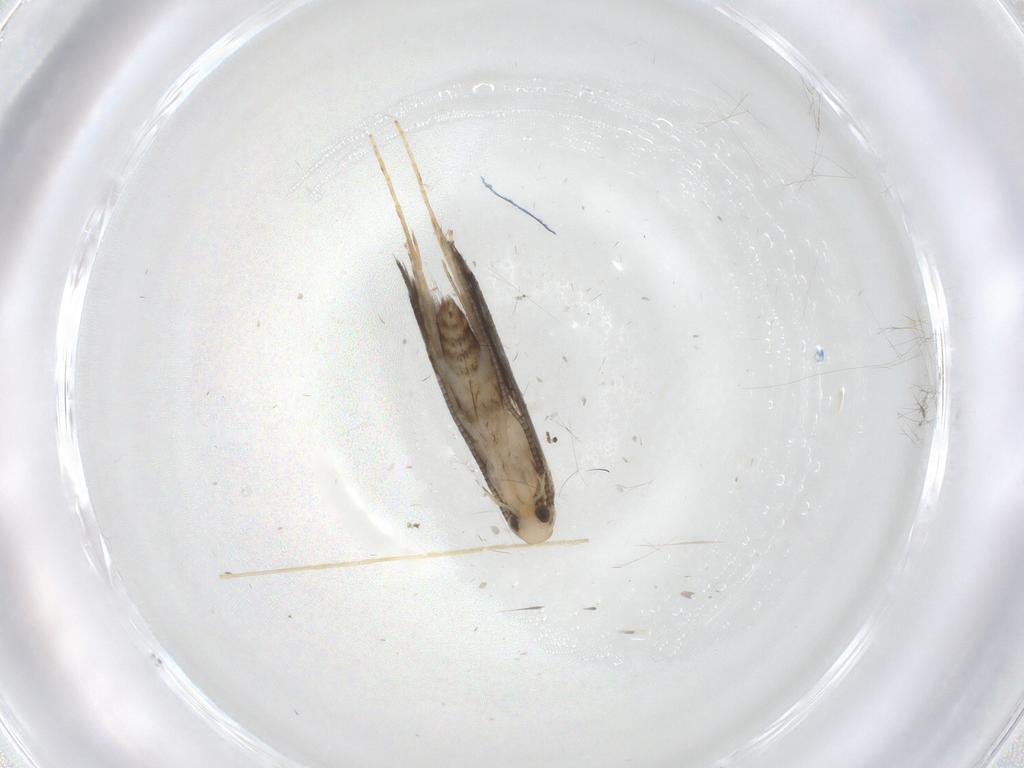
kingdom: Animalia
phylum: Arthropoda
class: Insecta
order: Lepidoptera
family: Gracillariidae
